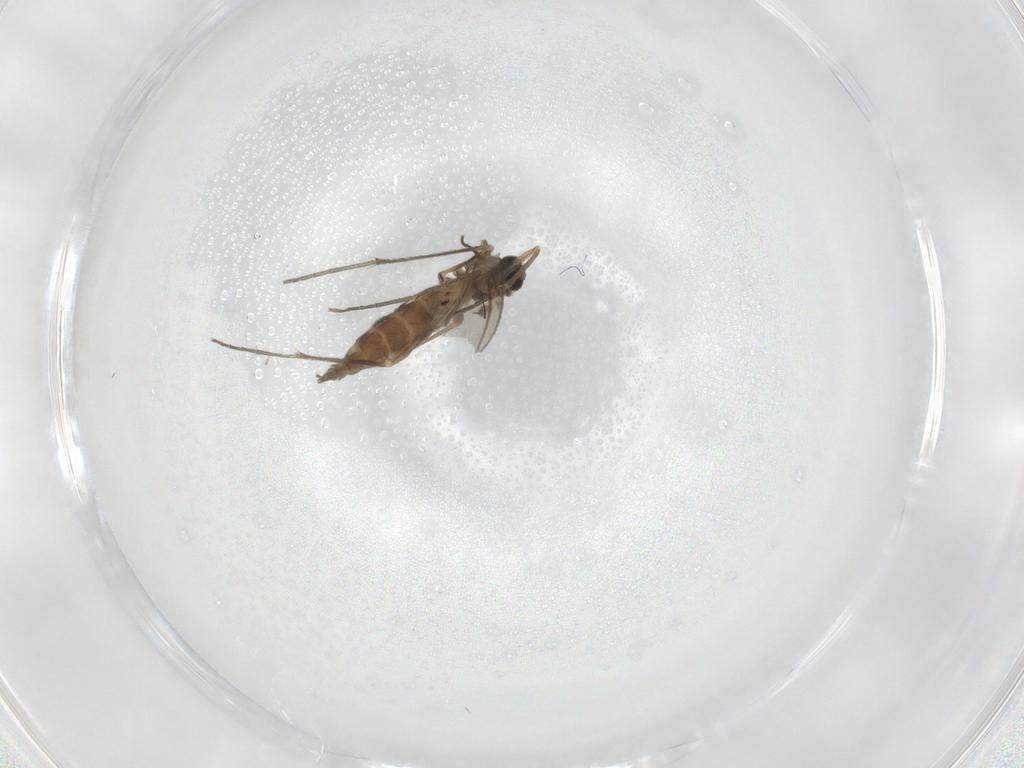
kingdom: Animalia
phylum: Arthropoda
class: Insecta
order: Diptera
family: Sciaridae
